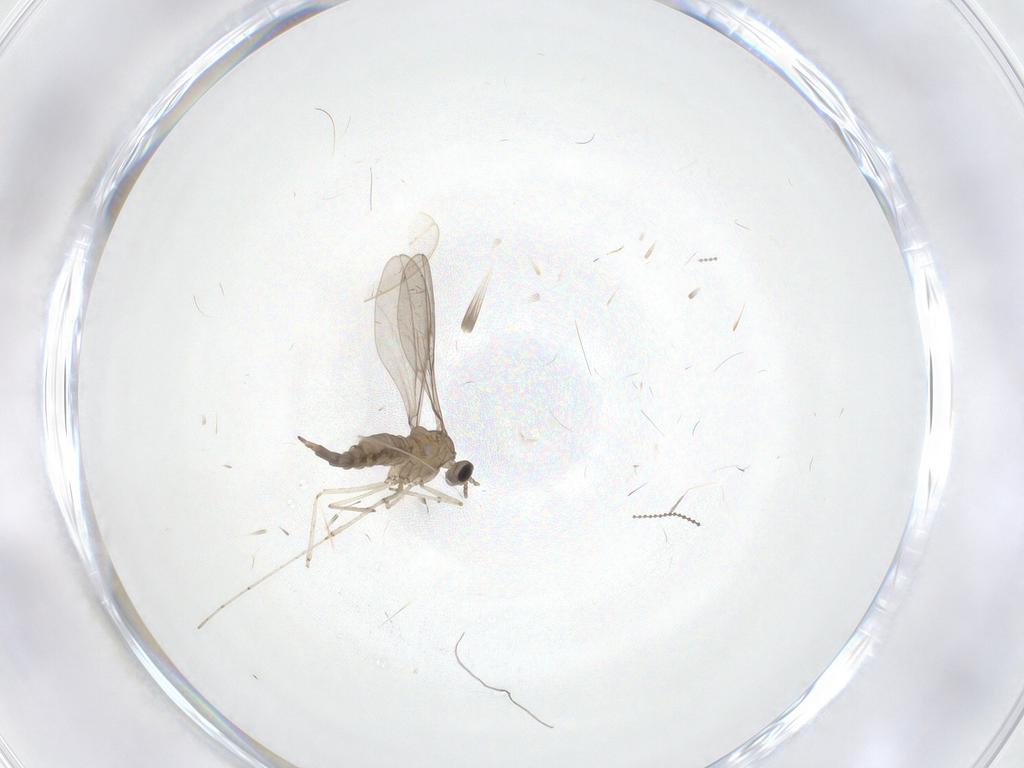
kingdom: Animalia
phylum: Arthropoda
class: Insecta
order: Diptera
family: Cecidomyiidae
